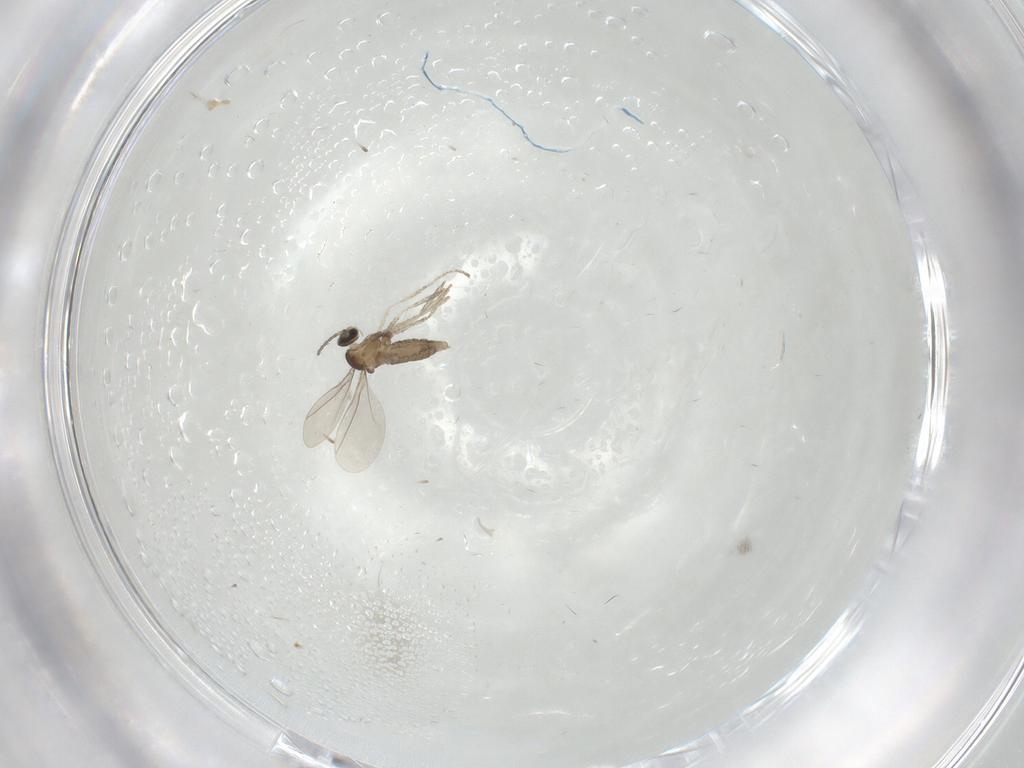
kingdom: Animalia
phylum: Arthropoda
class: Insecta
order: Diptera
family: Cecidomyiidae
